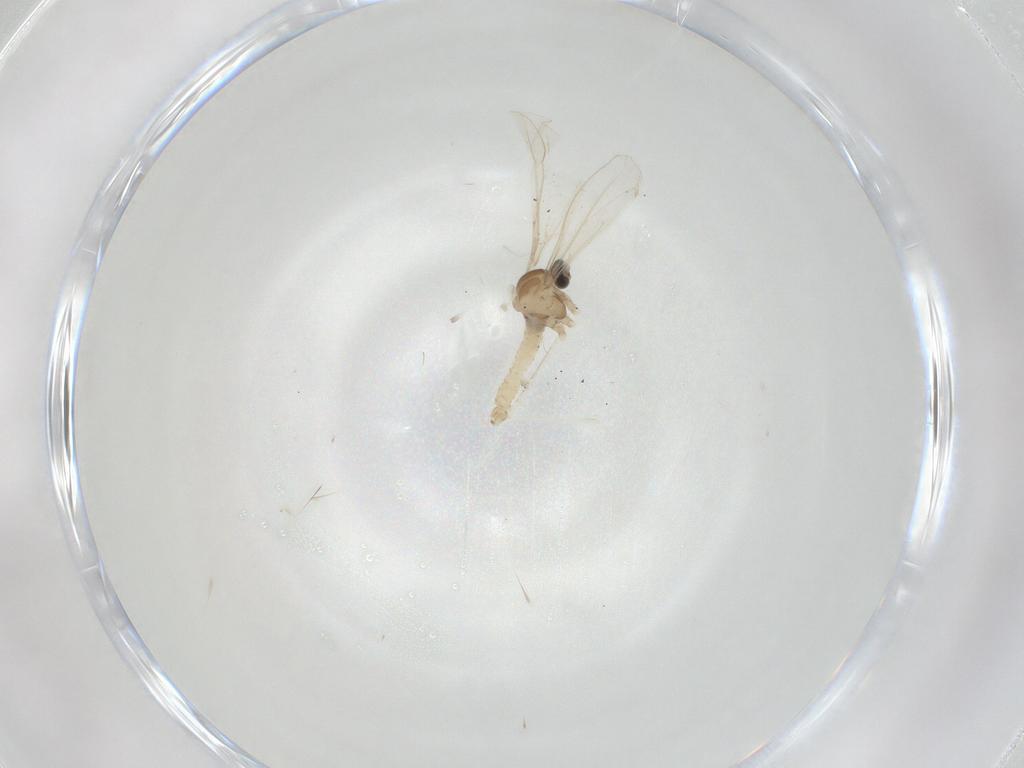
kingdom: Animalia
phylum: Arthropoda
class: Insecta
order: Diptera
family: Cecidomyiidae
